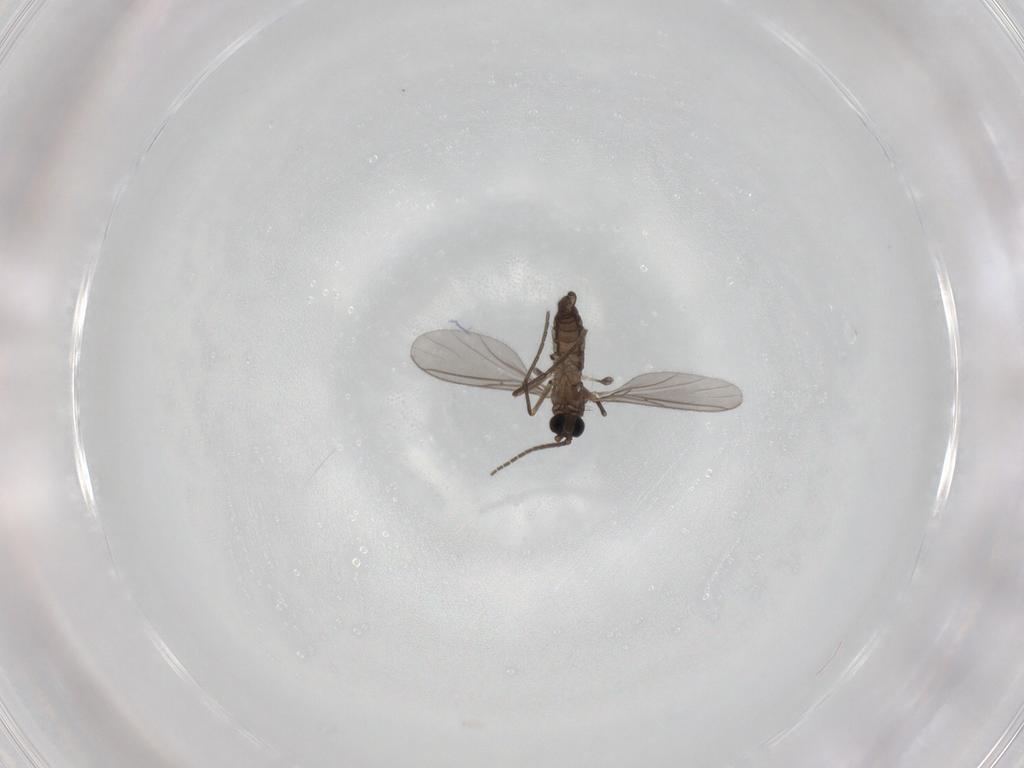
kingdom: Animalia
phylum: Arthropoda
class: Insecta
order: Diptera
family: Sciaridae
